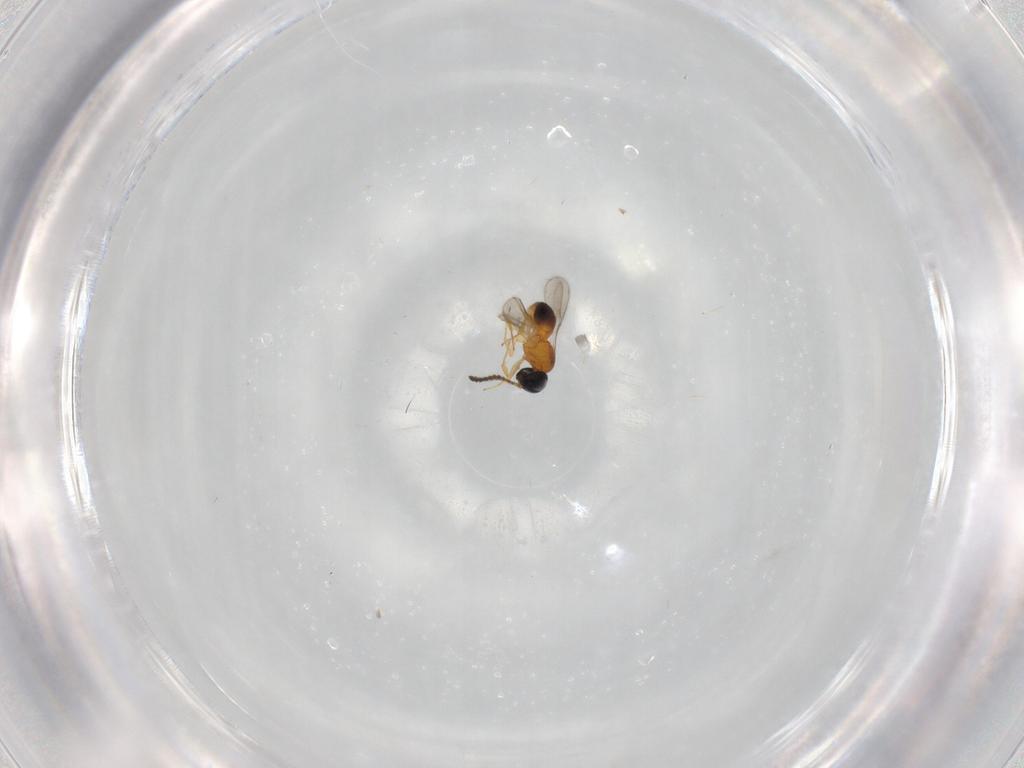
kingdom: Animalia
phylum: Arthropoda
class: Insecta
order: Hymenoptera
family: Scelionidae
